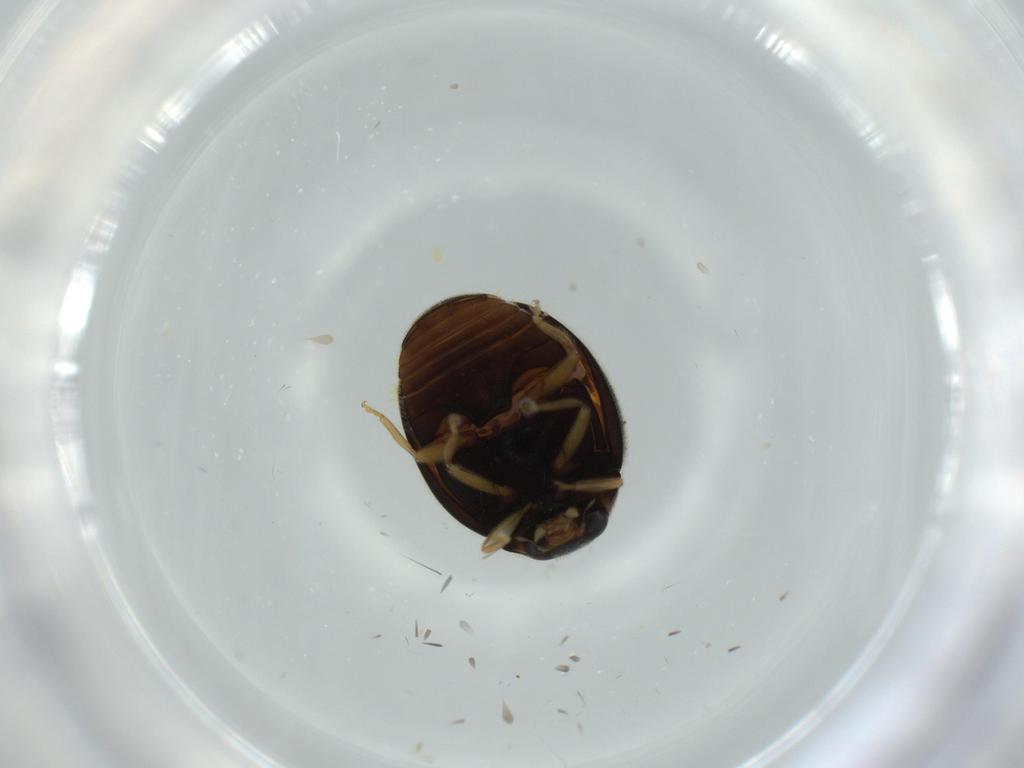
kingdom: Animalia
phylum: Arthropoda
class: Insecta
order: Coleoptera
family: Coccinellidae
